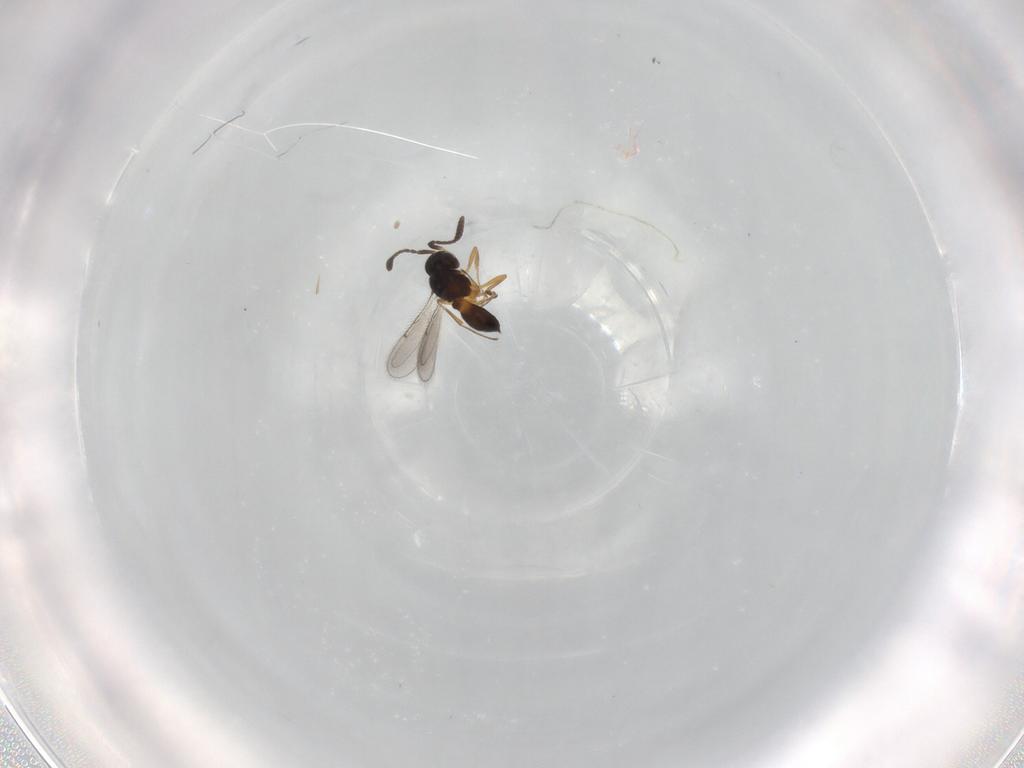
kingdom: Animalia
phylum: Arthropoda
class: Insecta
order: Hymenoptera
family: Scelionidae
